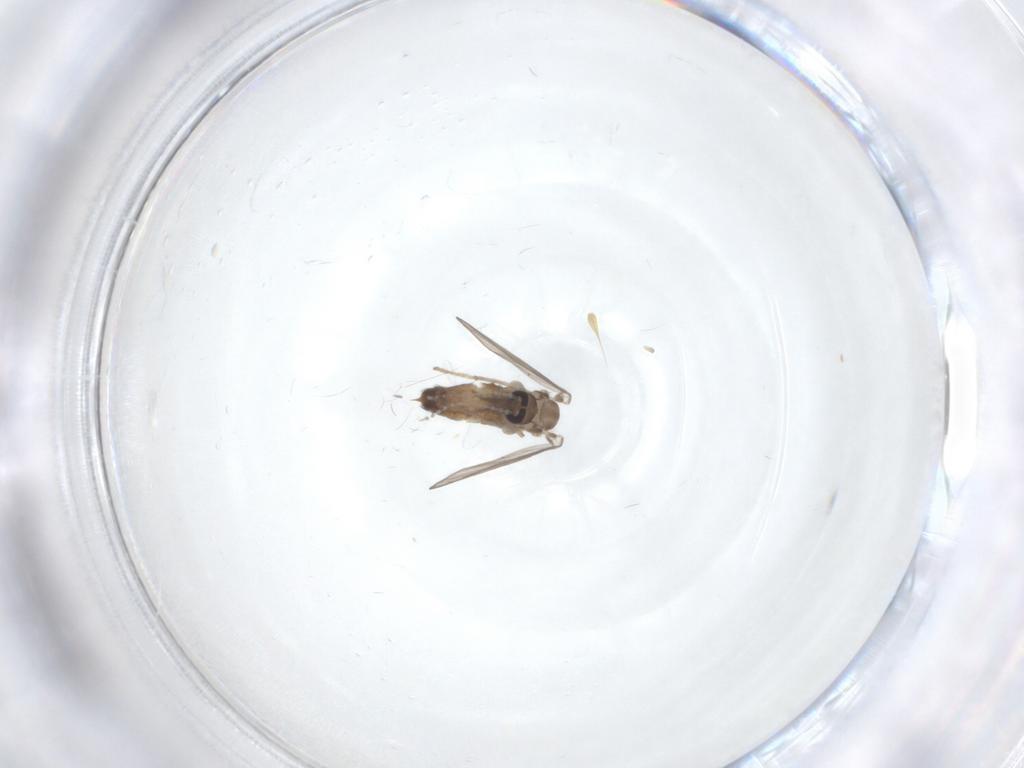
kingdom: Animalia
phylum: Arthropoda
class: Insecta
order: Diptera
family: Psychodidae
